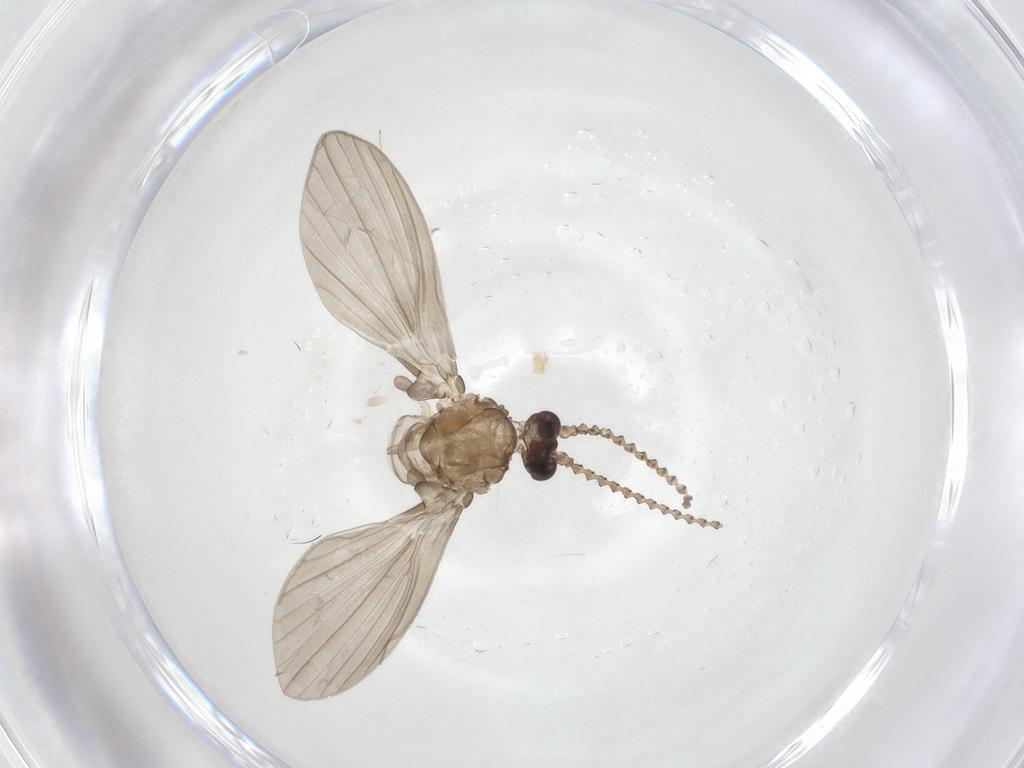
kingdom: Animalia
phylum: Arthropoda
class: Insecta
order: Diptera
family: Psychodidae
